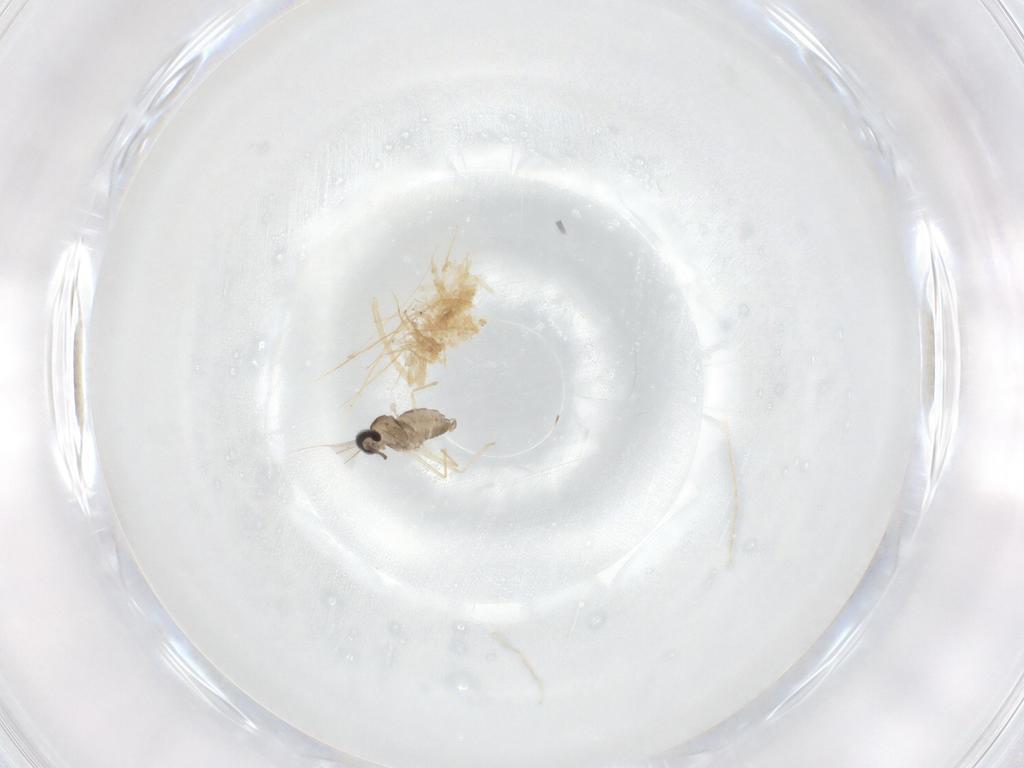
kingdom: Animalia
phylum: Arthropoda
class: Insecta
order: Diptera
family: Cecidomyiidae
